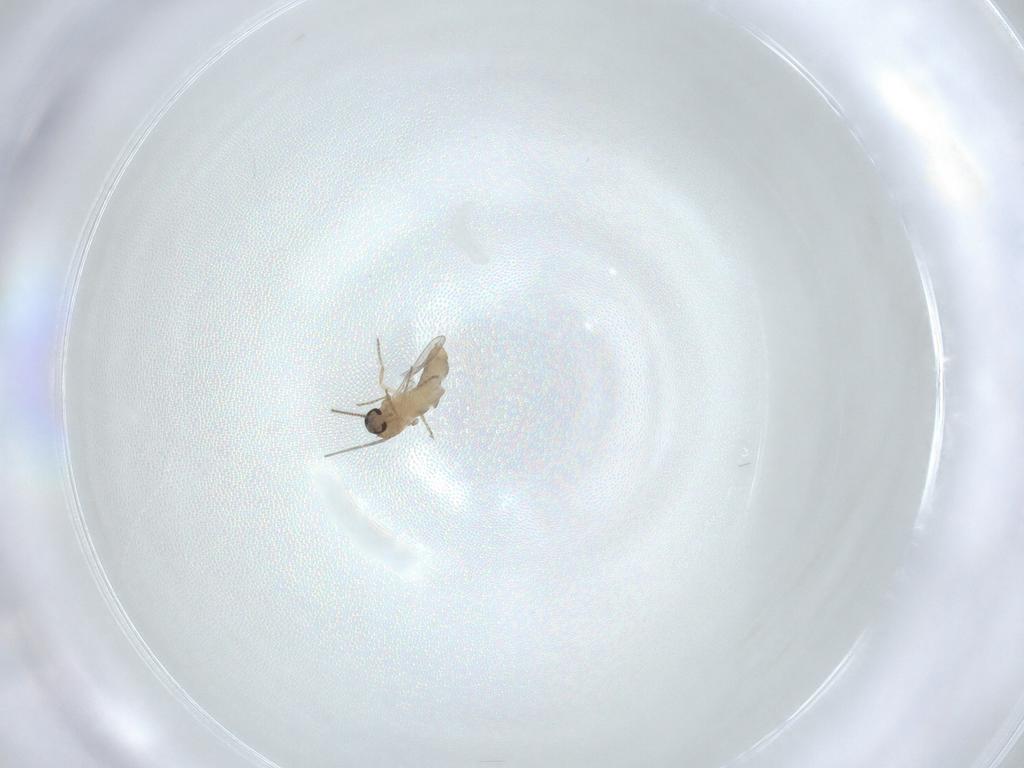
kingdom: Animalia
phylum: Arthropoda
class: Insecta
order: Diptera
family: Ceratopogonidae
